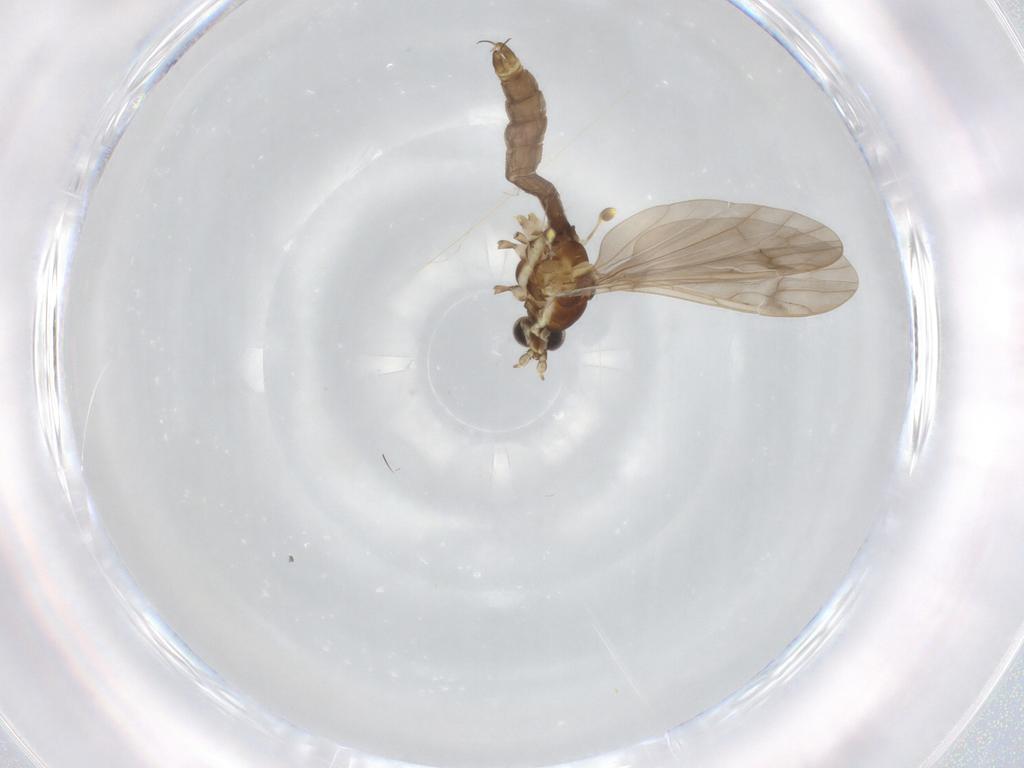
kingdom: Animalia
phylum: Arthropoda
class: Insecta
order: Diptera
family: Limoniidae
